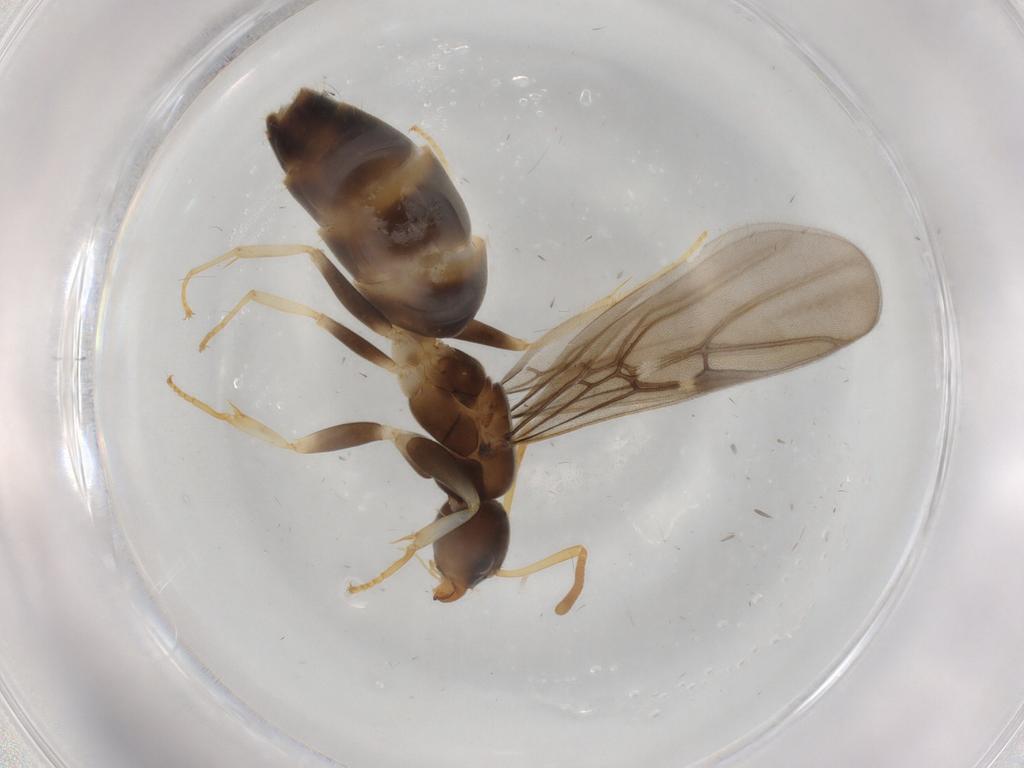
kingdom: Animalia
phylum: Arthropoda
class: Insecta
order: Hymenoptera
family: Formicidae
